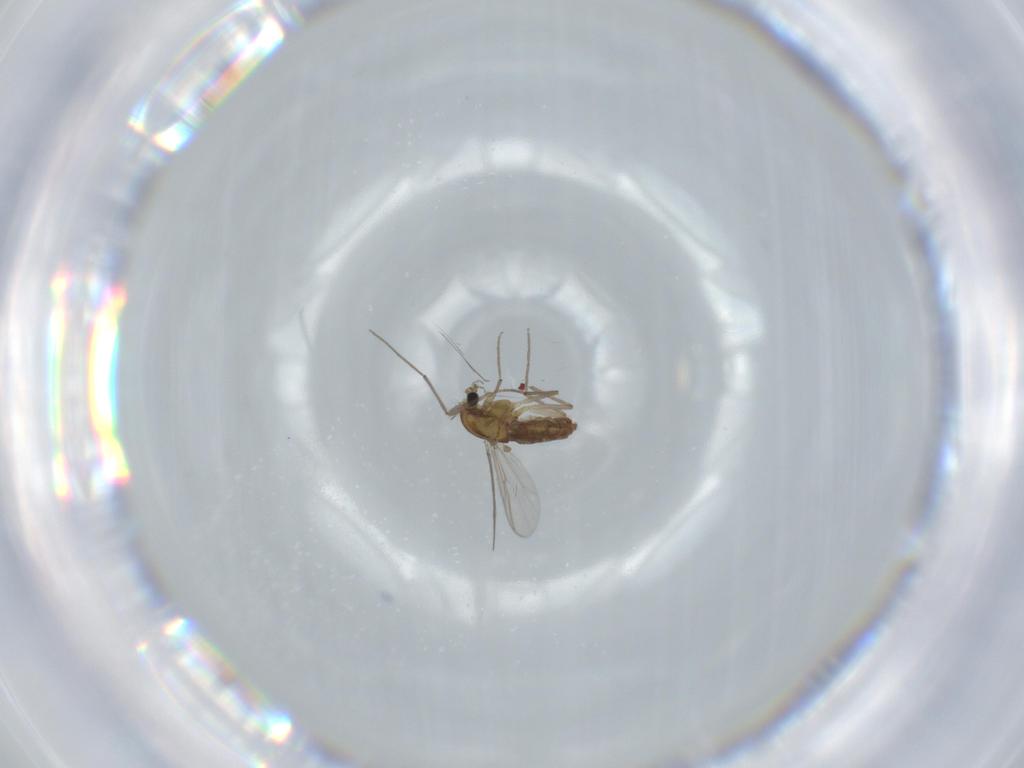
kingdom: Animalia
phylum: Arthropoda
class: Insecta
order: Diptera
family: Chironomidae
